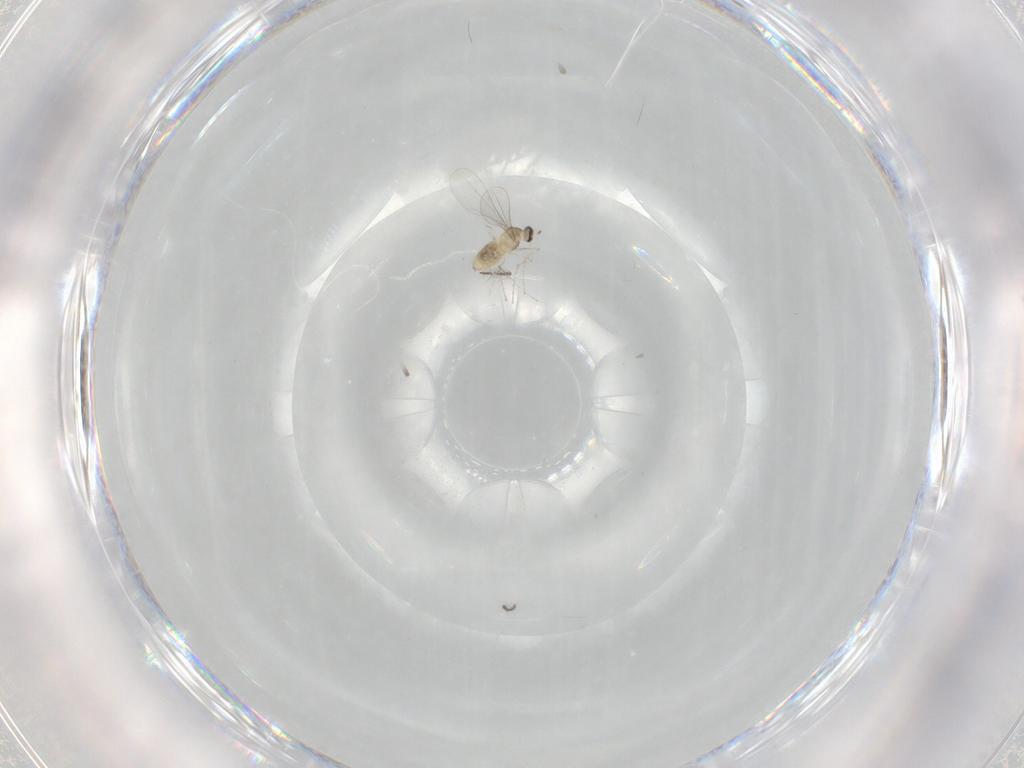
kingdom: Animalia
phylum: Arthropoda
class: Insecta
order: Diptera
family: Cecidomyiidae
